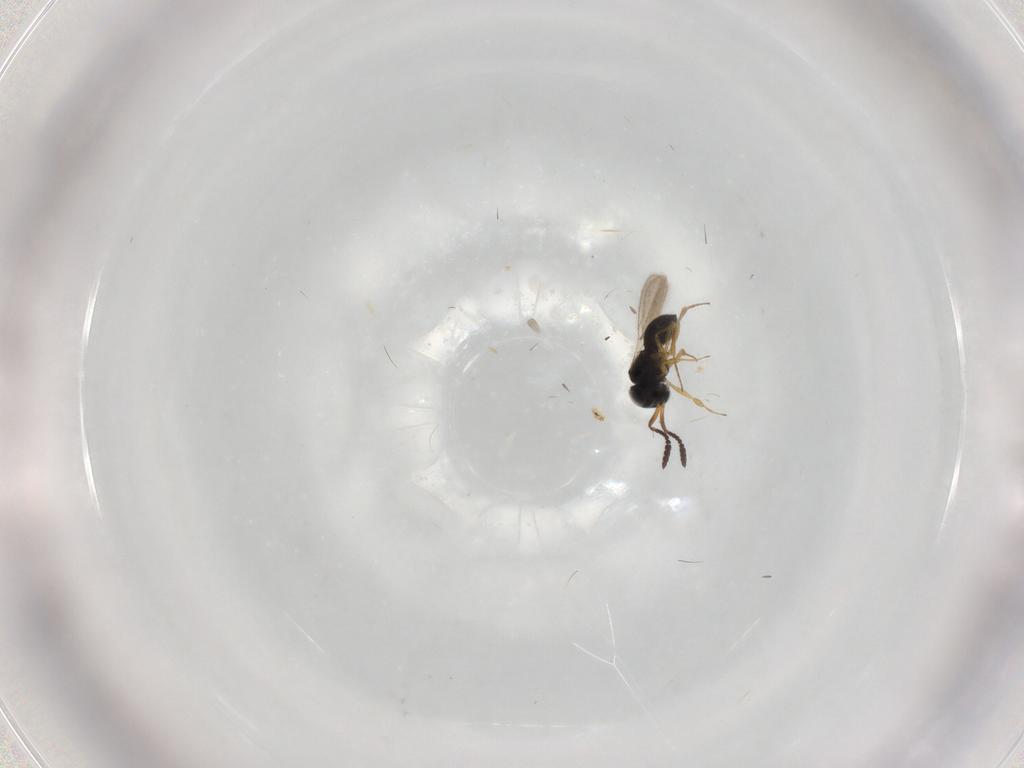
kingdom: Animalia
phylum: Arthropoda
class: Insecta
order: Hymenoptera
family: Scelionidae
